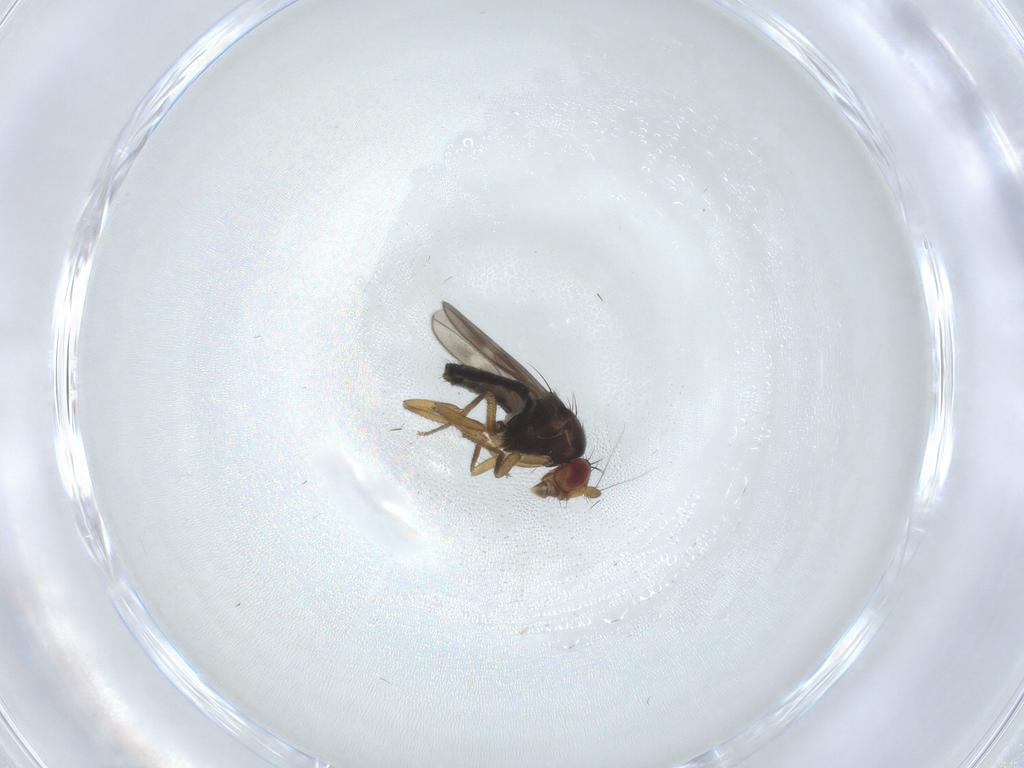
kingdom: Animalia
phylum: Arthropoda
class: Insecta
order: Diptera
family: Sphaeroceridae
